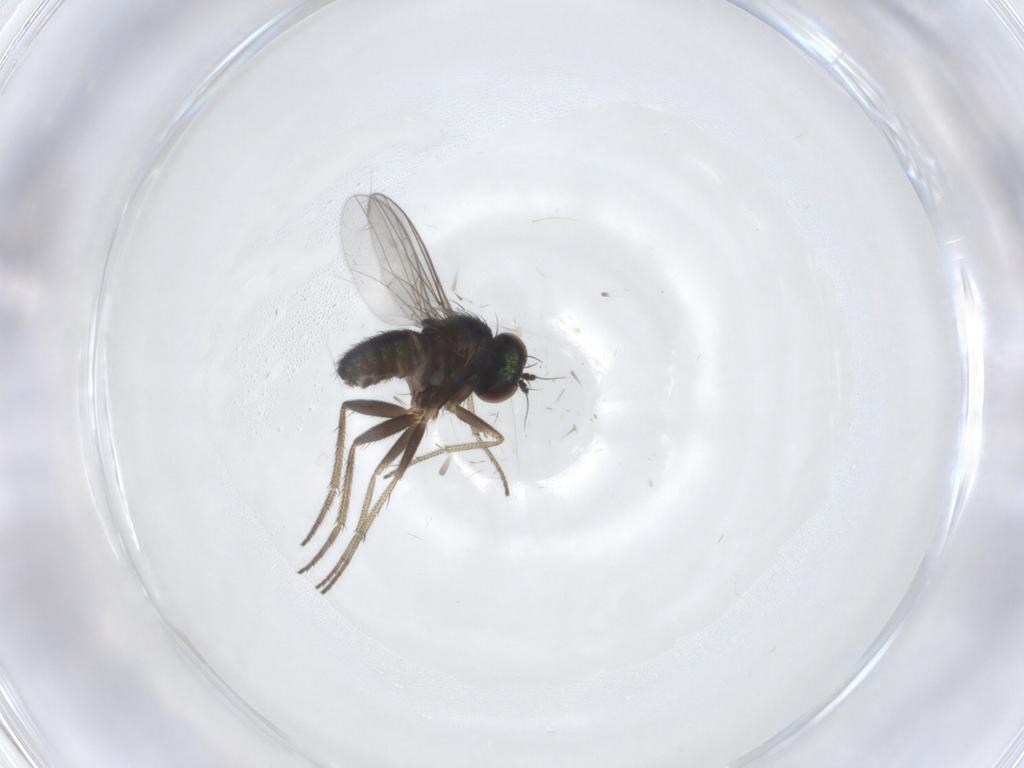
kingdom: Animalia
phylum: Arthropoda
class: Insecta
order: Diptera
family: Dolichopodidae
